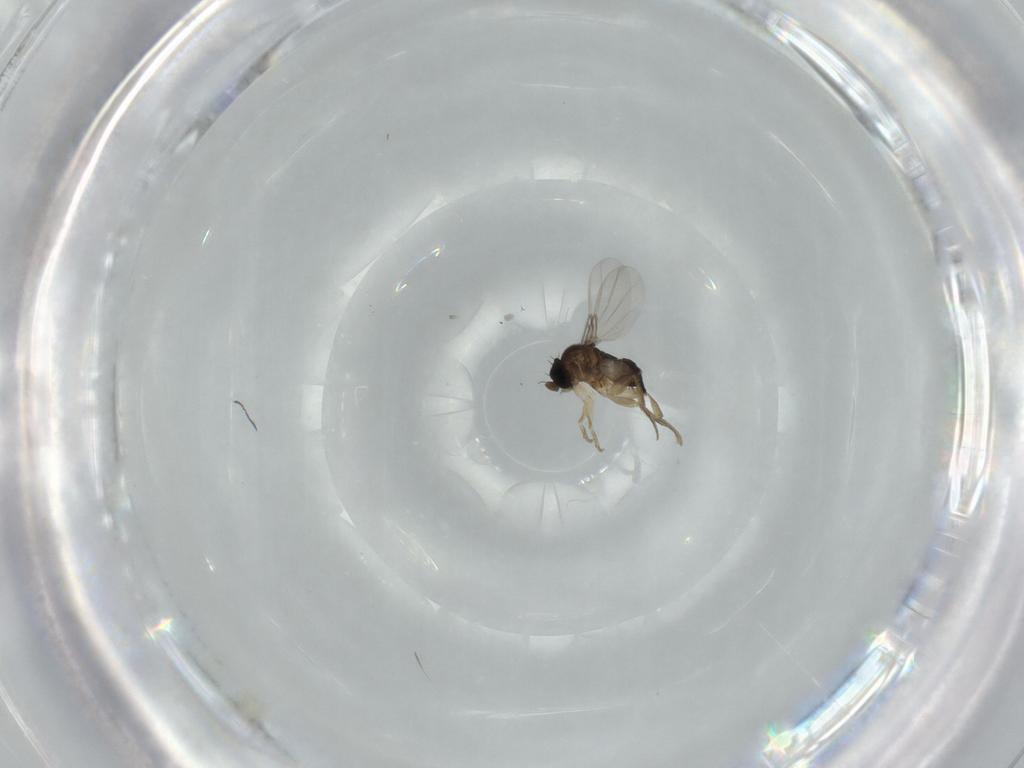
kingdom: Animalia
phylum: Arthropoda
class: Insecta
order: Diptera
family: Phoridae
